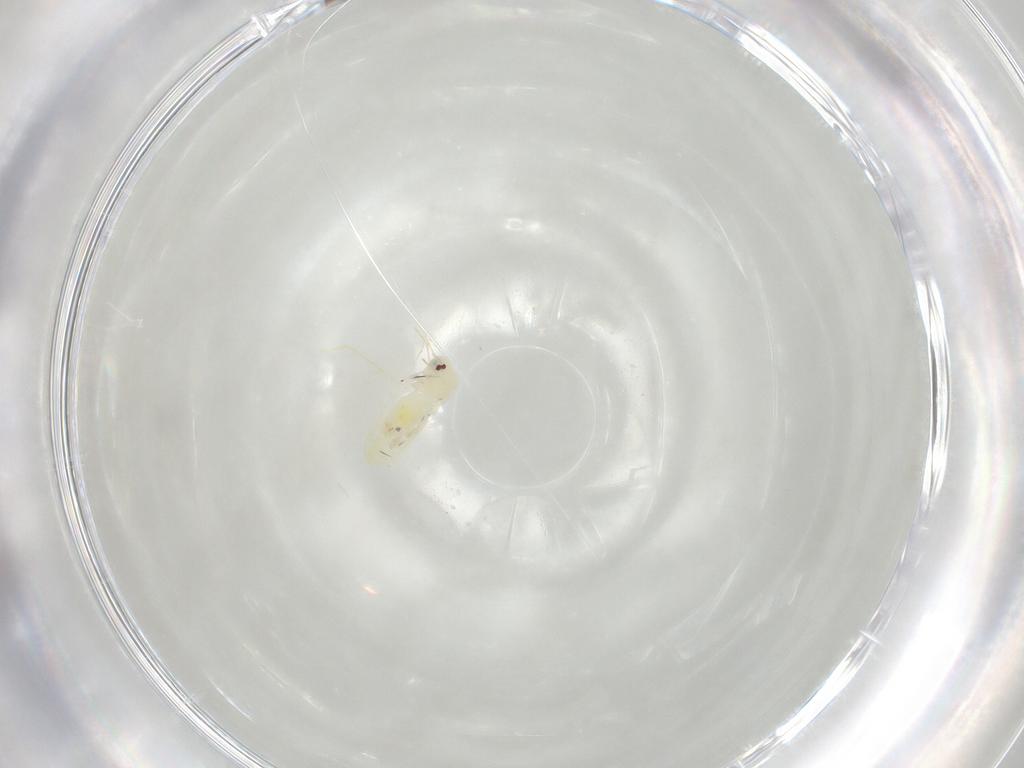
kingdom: Animalia
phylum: Arthropoda
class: Insecta
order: Hemiptera
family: Aleyrodidae
